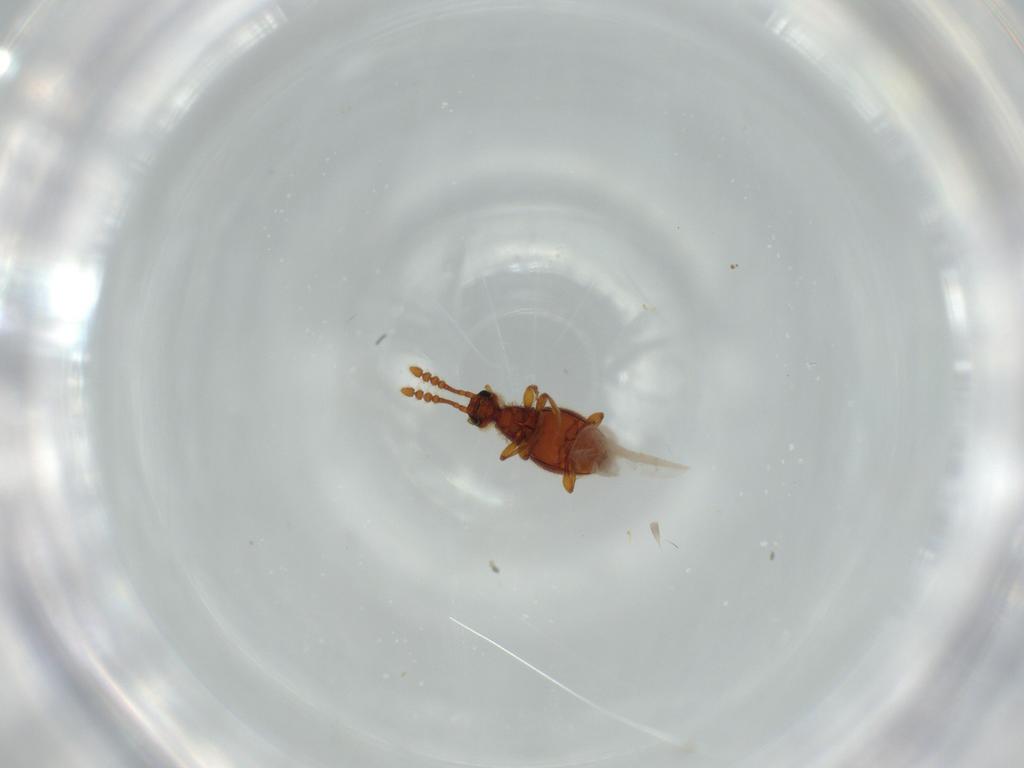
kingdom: Animalia
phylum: Arthropoda
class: Insecta
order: Coleoptera
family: Staphylinidae
